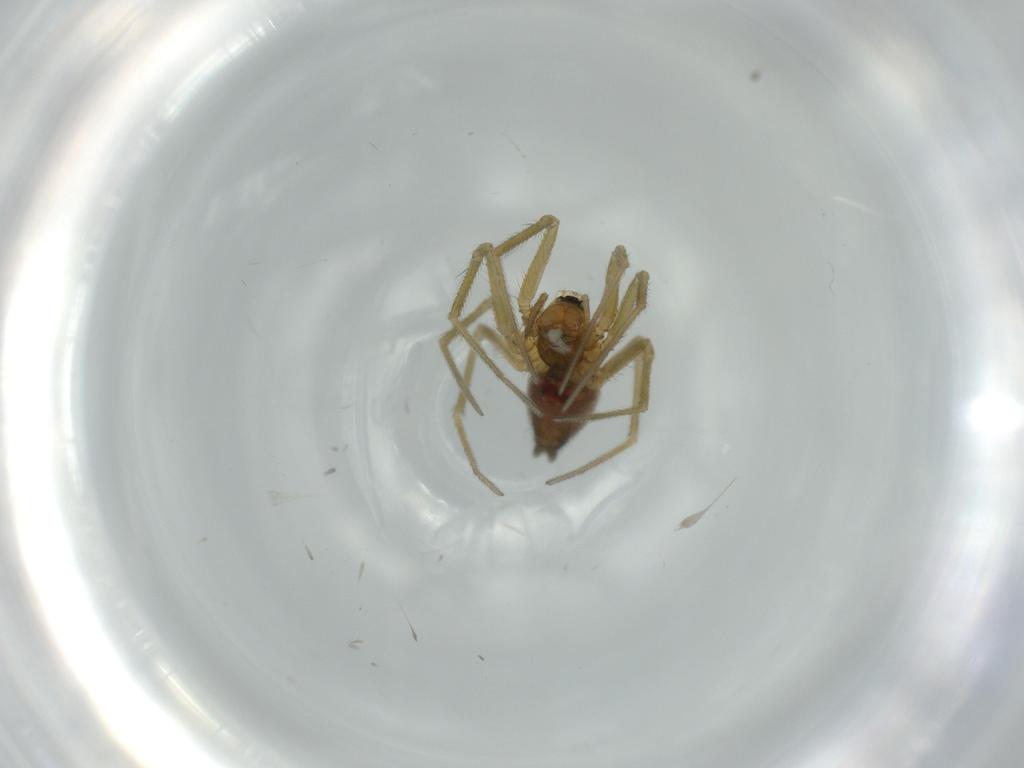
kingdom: Animalia
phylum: Arthropoda
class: Arachnida
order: Araneae
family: Linyphiidae
